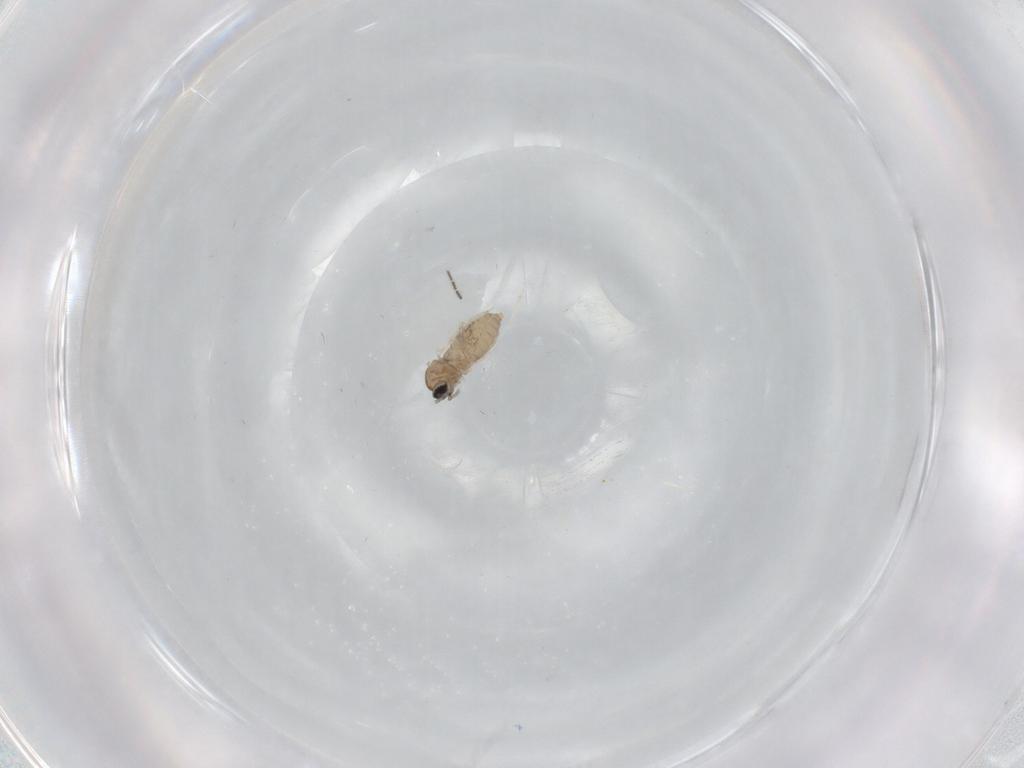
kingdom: Animalia
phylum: Arthropoda
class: Insecta
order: Diptera
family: Cecidomyiidae
